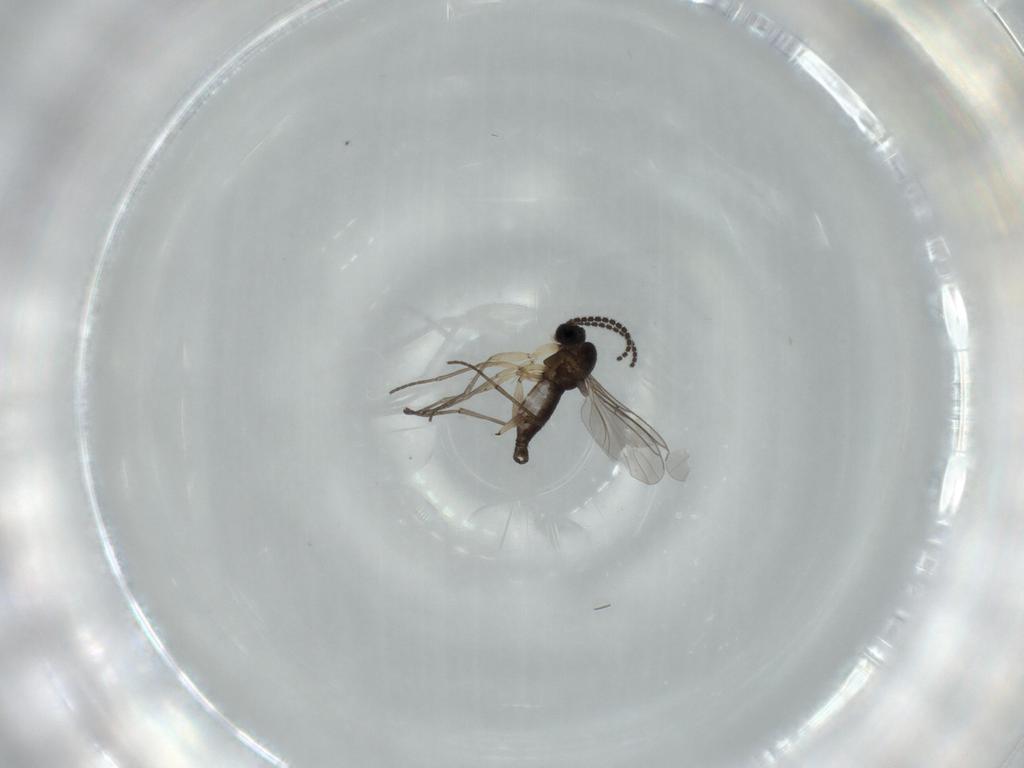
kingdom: Animalia
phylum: Arthropoda
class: Insecta
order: Diptera
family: Sciaridae
